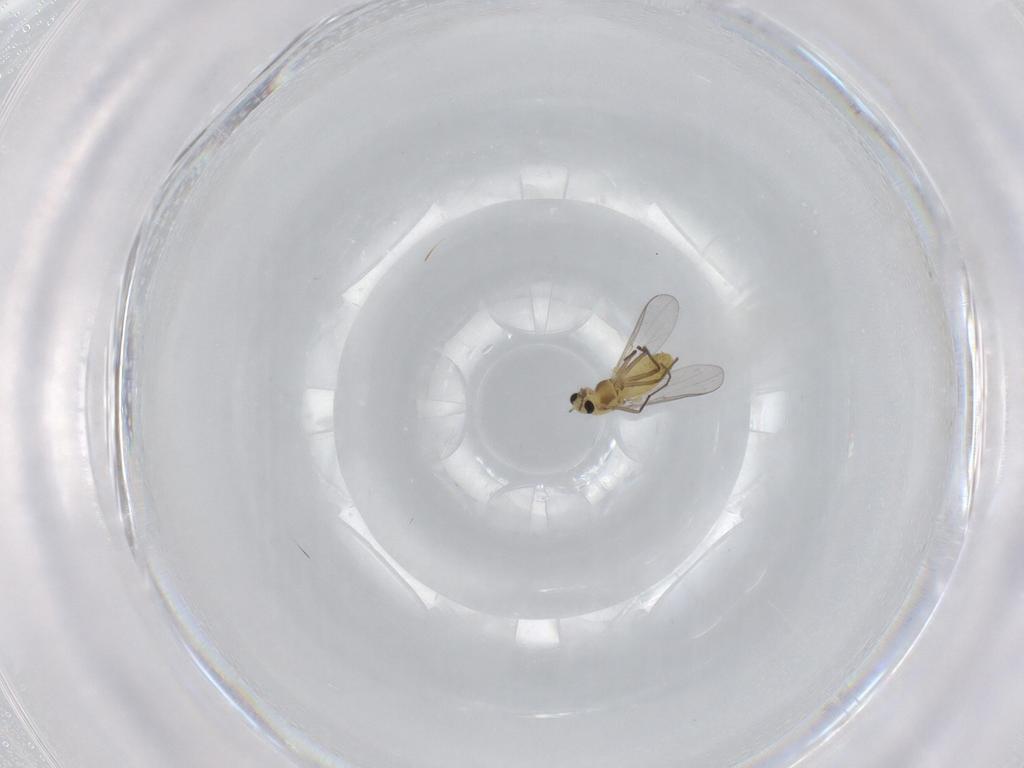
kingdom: Animalia
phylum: Arthropoda
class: Insecta
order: Diptera
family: Chironomidae
